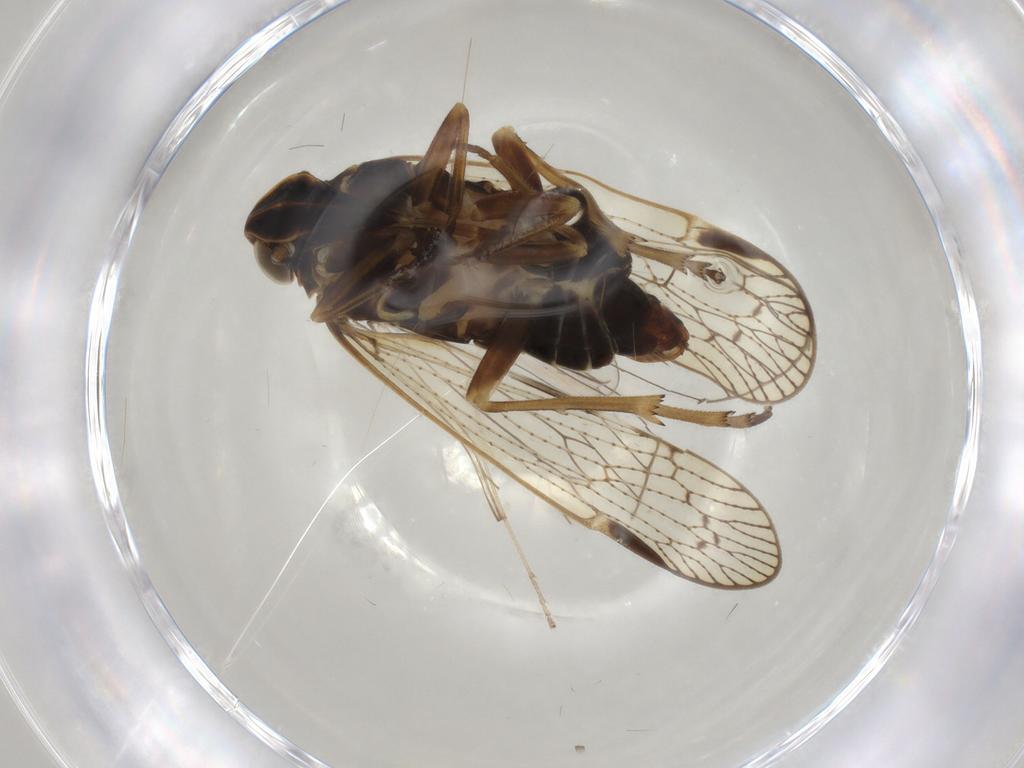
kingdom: Animalia
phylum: Arthropoda
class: Insecta
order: Hemiptera
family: Cixiidae
